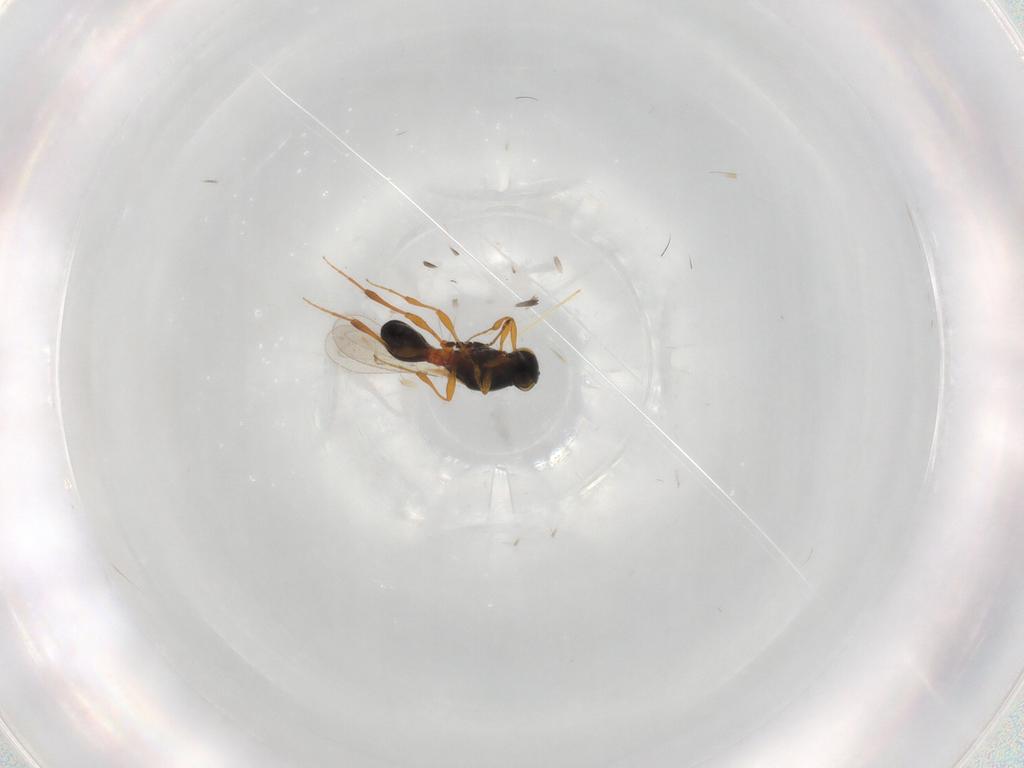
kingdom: Animalia
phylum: Arthropoda
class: Insecta
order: Hymenoptera
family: Platygastridae
